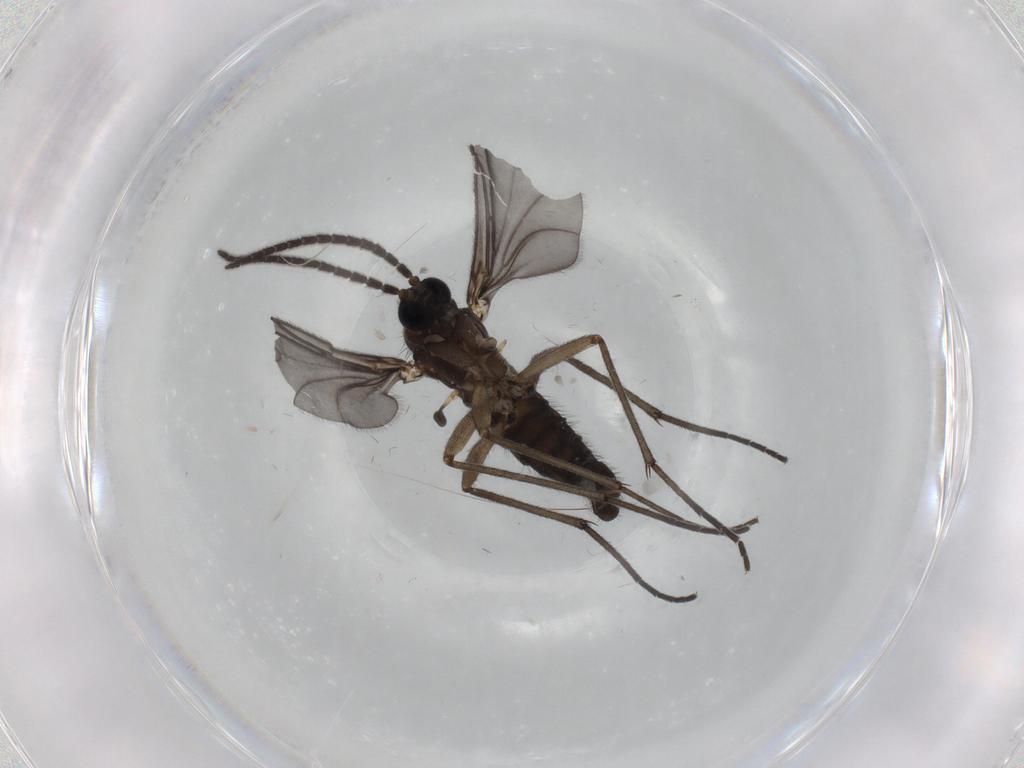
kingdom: Animalia
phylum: Arthropoda
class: Insecta
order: Diptera
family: Sciaridae
